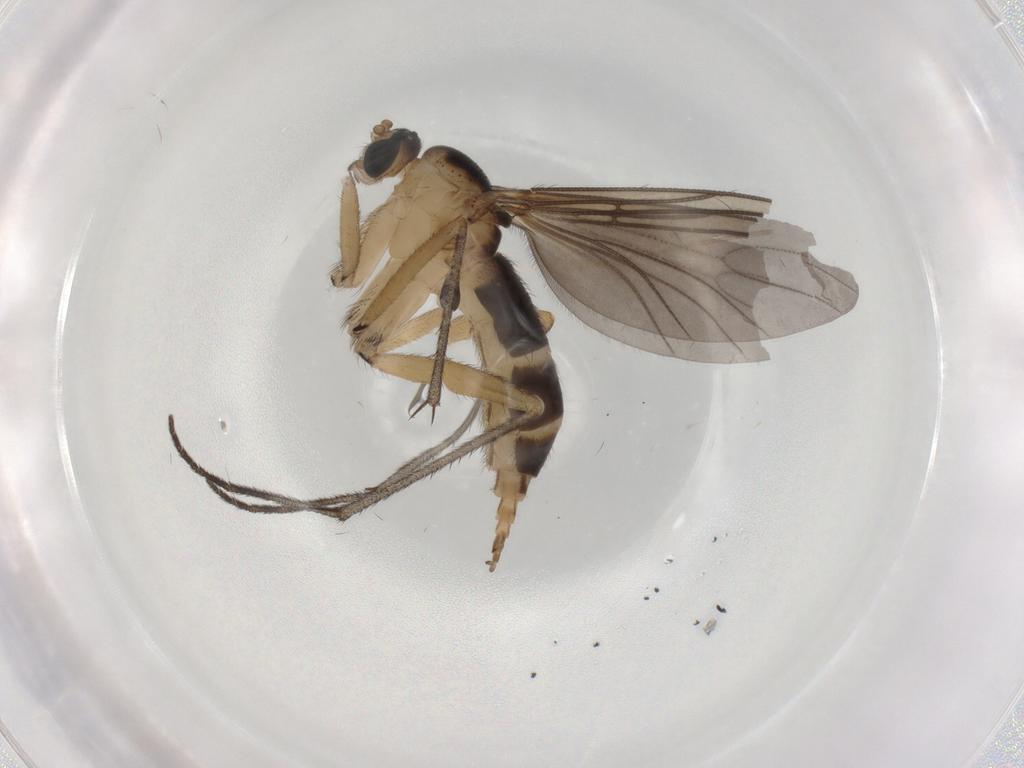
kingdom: Animalia
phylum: Arthropoda
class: Insecta
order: Diptera
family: Sciaridae
